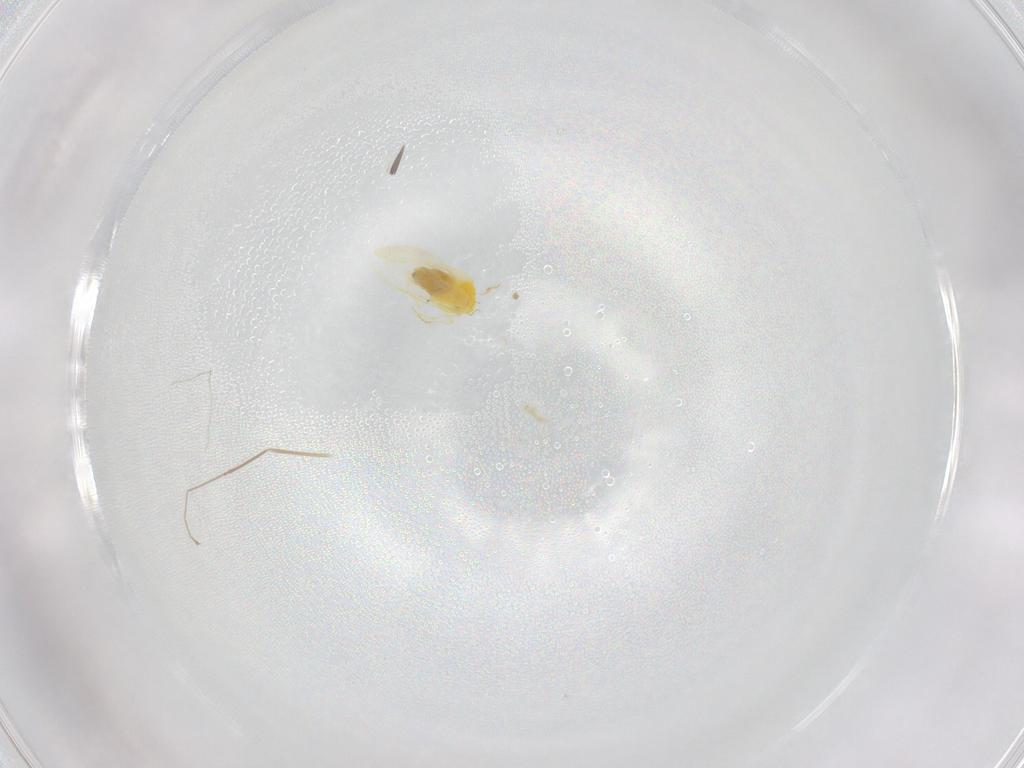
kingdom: Animalia
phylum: Arthropoda
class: Insecta
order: Hemiptera
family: Aleyrodidae
